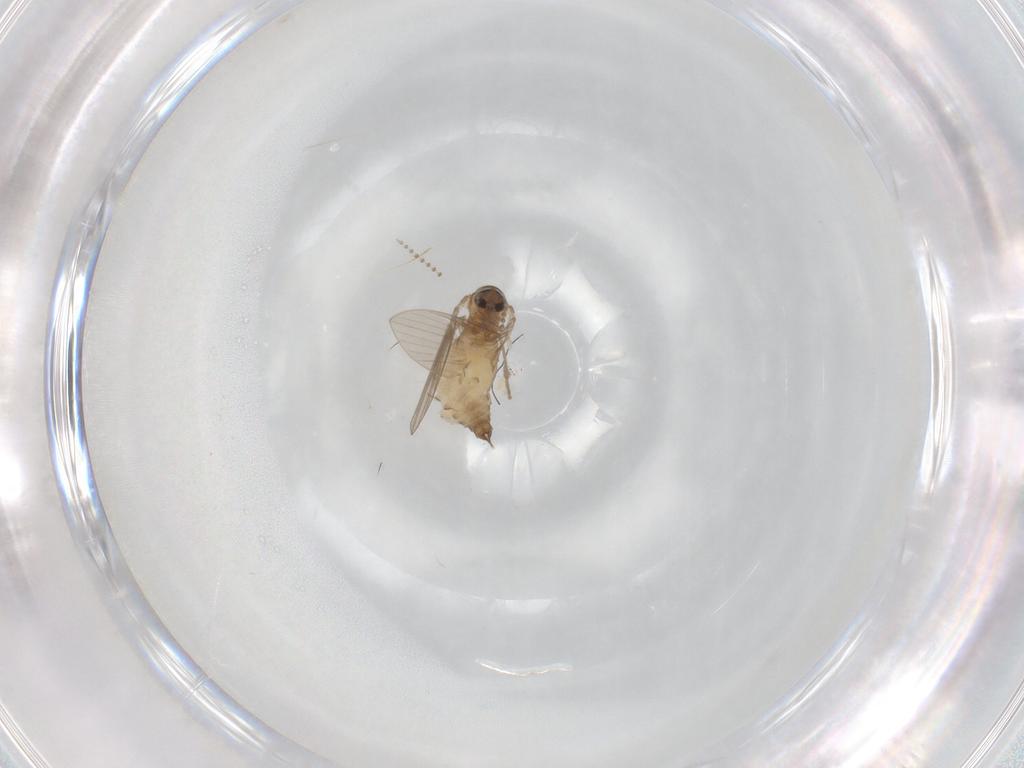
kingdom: Animalia
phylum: Arthropoda
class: Insecta
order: Diptera
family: Psychodidae
